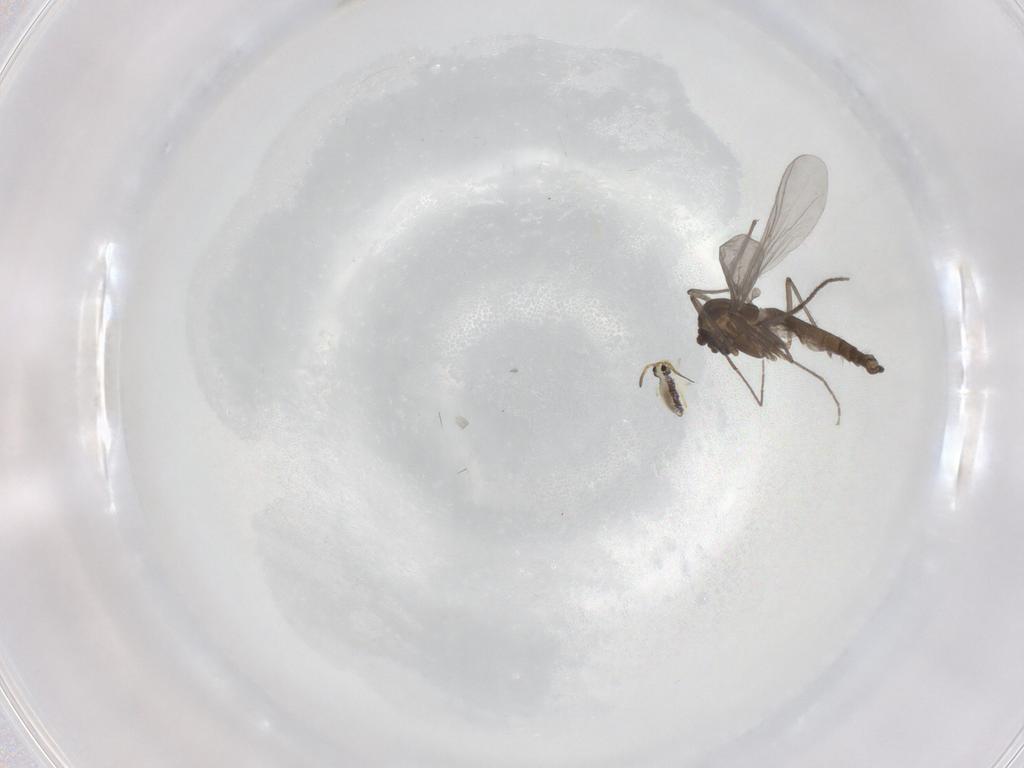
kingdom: Animalia
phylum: Arthropoda
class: Insecta
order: Diptera
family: Chironomidae
